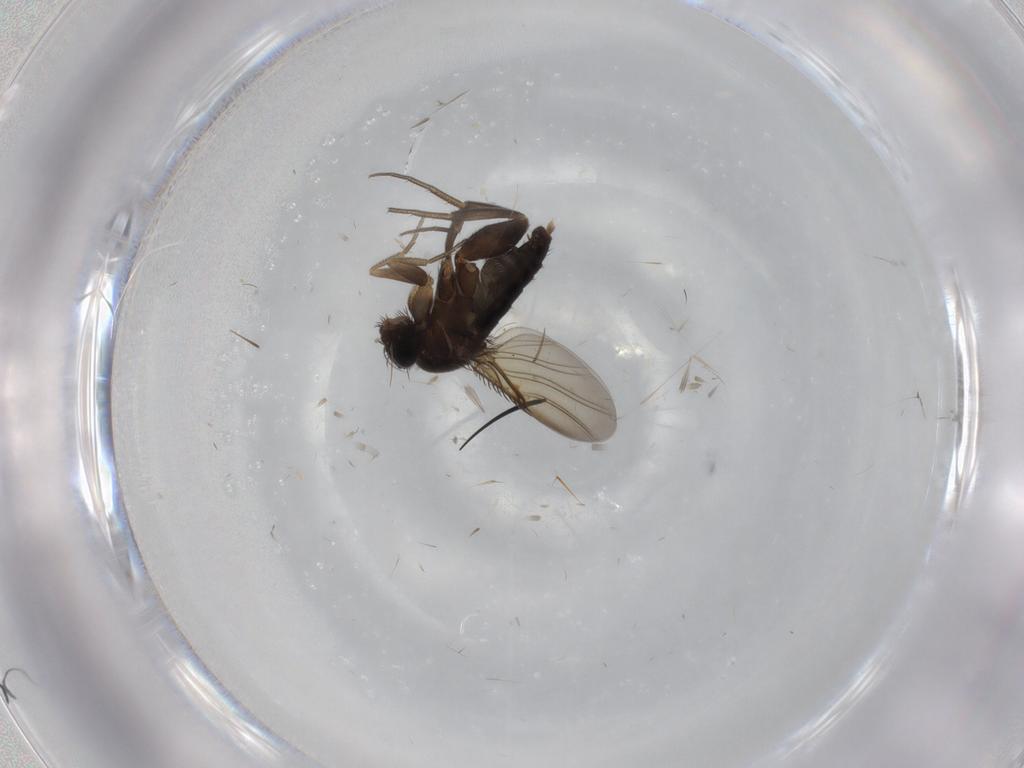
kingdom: Animalia
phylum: Arthropoda
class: Insecta
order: Diptera
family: Phoridae
